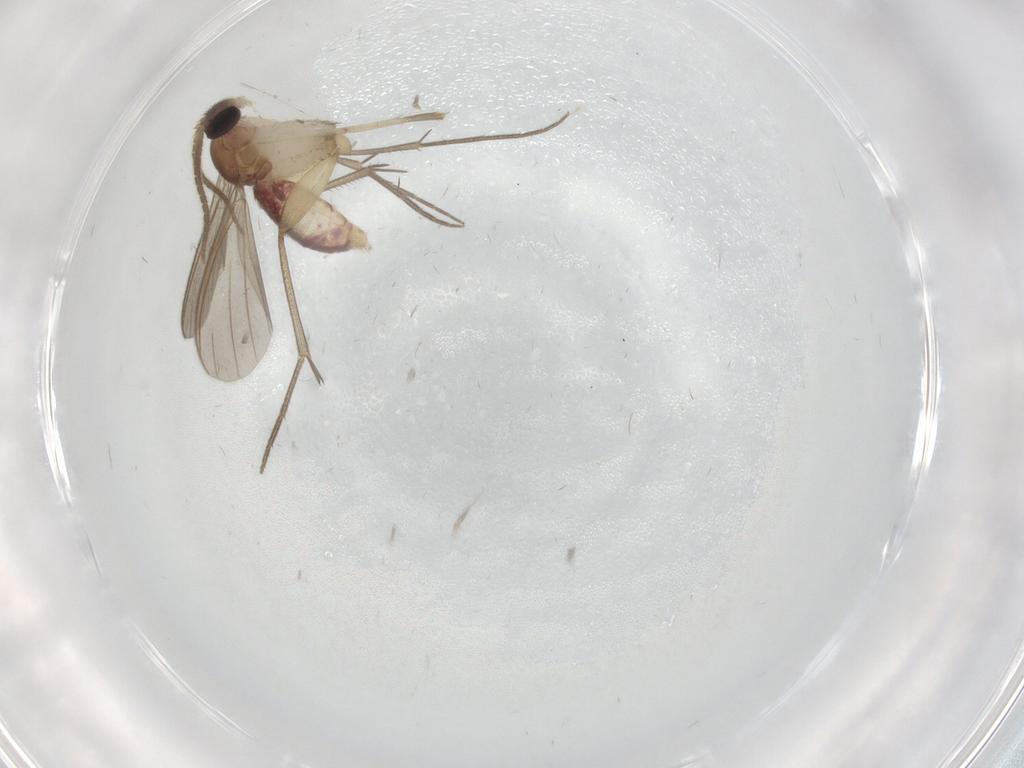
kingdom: Animalia
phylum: Arthropoda
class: Insecta
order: Diptera
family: Mycetophilidae
